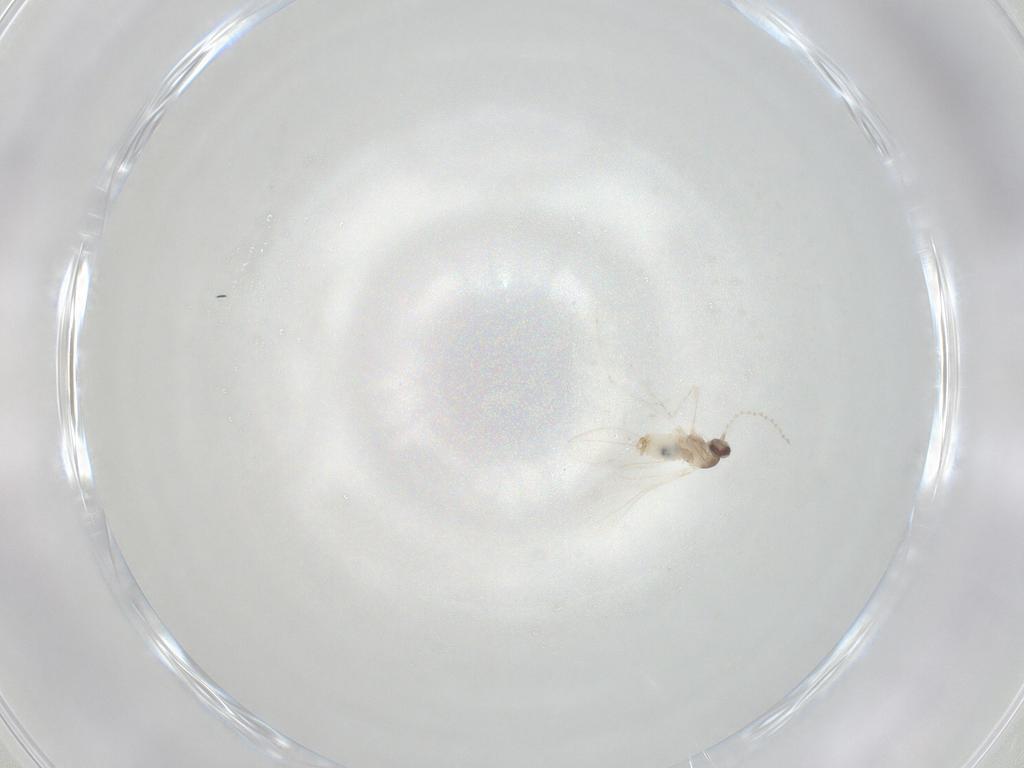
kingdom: Animalia
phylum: Arthropoda
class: Insecta
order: Diptera
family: Cecidomyiidae
